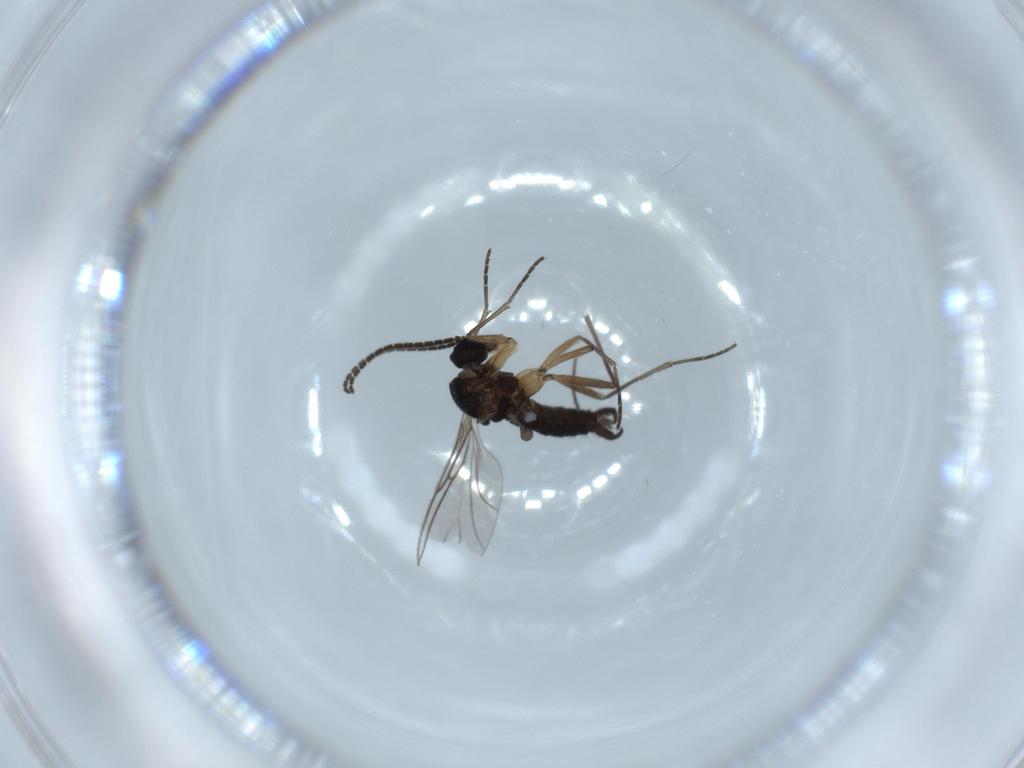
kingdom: Animalia
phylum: Arthropoda
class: Insecta
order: Diptera
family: Sciaridae
